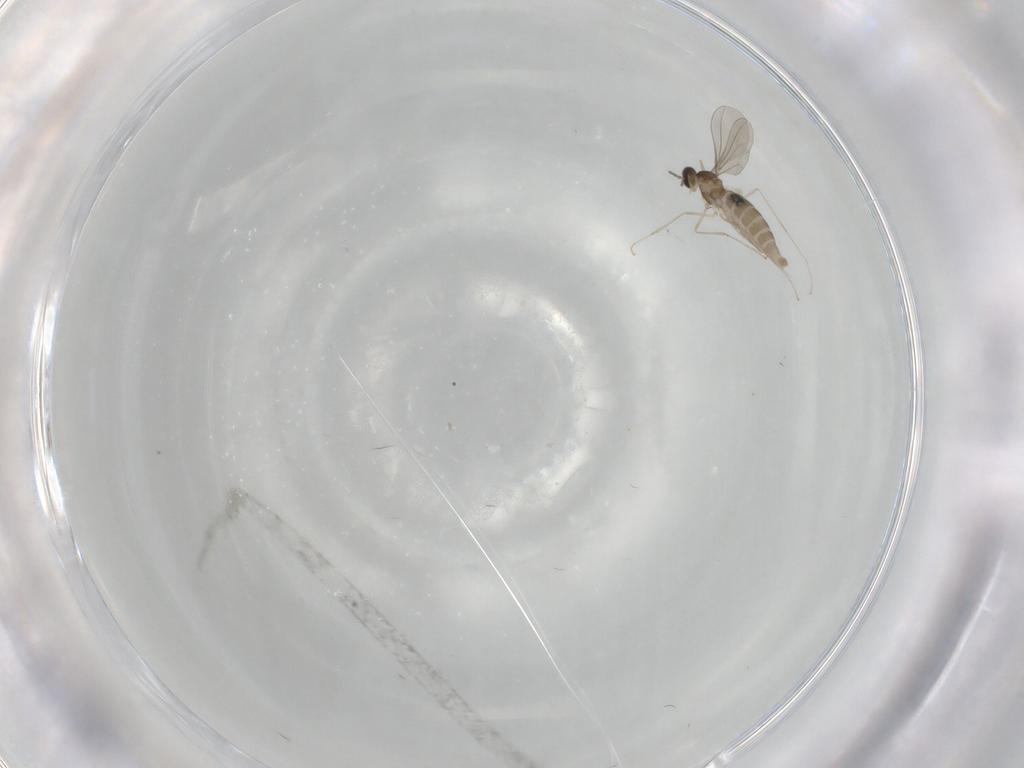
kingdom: Animalia
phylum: Arthropoda
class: Insecta
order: Diptera
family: Cecidomyiidae
